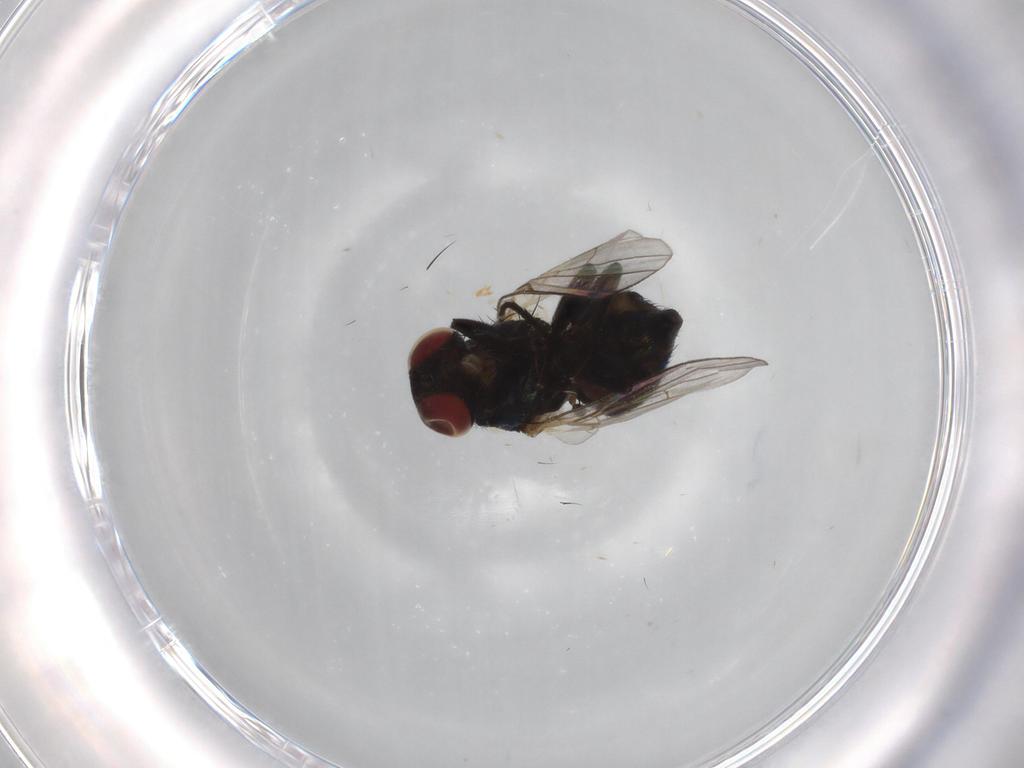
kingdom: Animalia
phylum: Arthropoda
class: Insecta
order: Diptera
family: Agromyzidae
